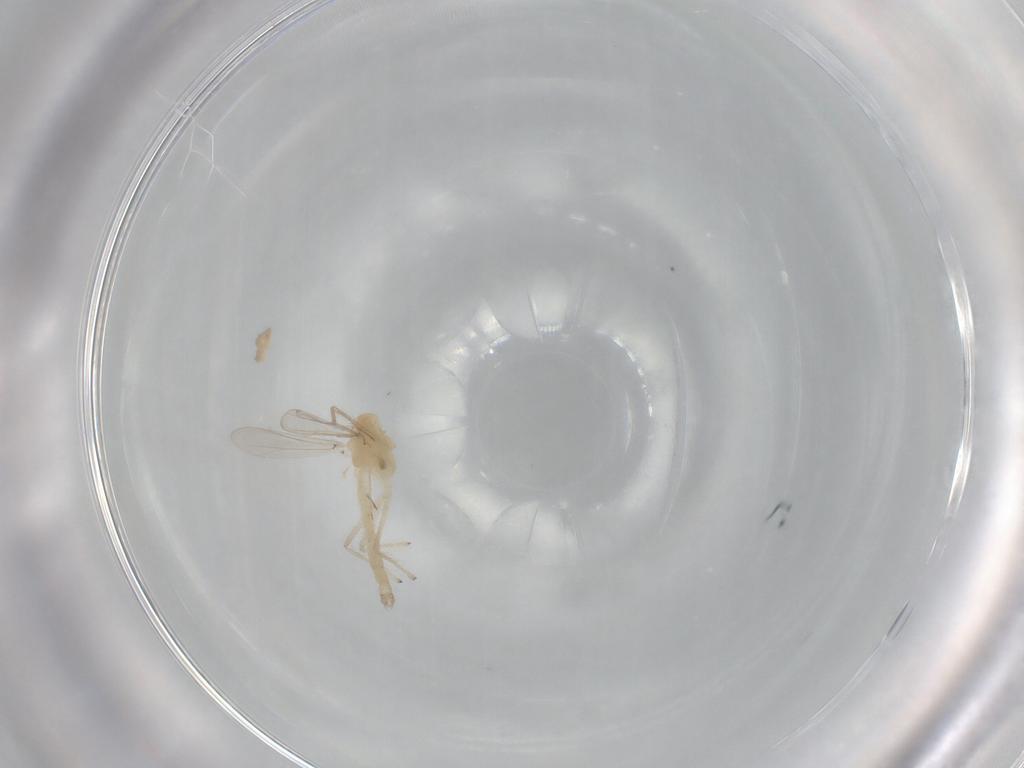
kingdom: Animalia
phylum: Arthropoda
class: Insecta
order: Diptera
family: Chironomidae
